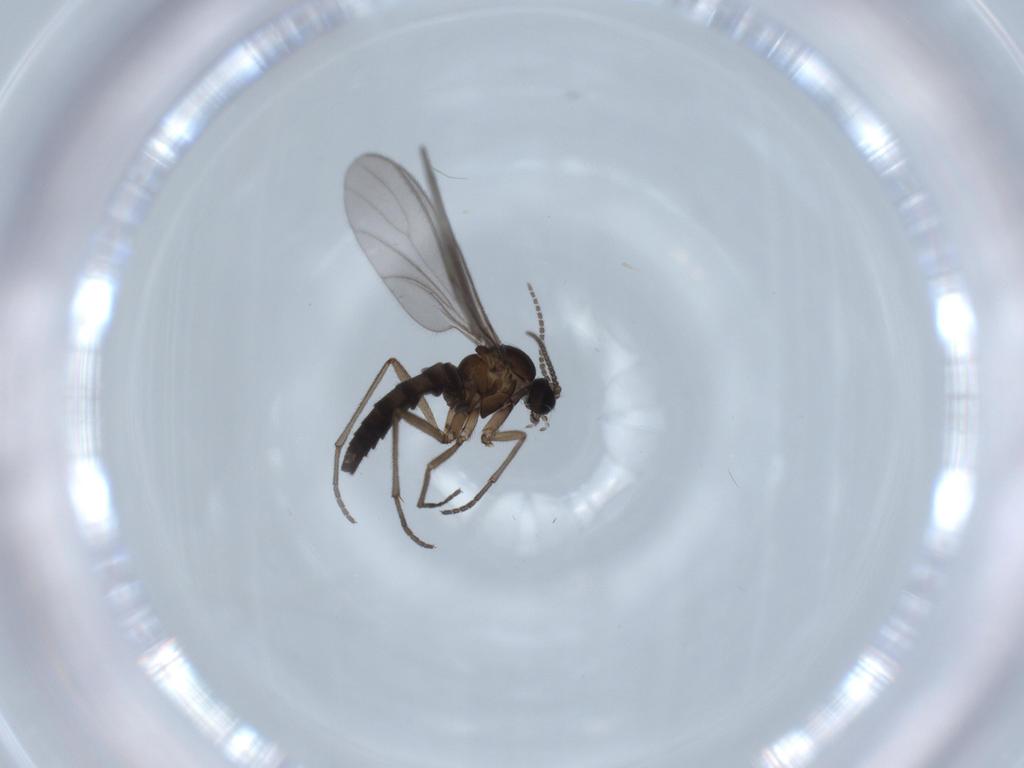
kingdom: Animalia
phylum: Arthropoda
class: Insecta
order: Diptera
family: Sciaridae
